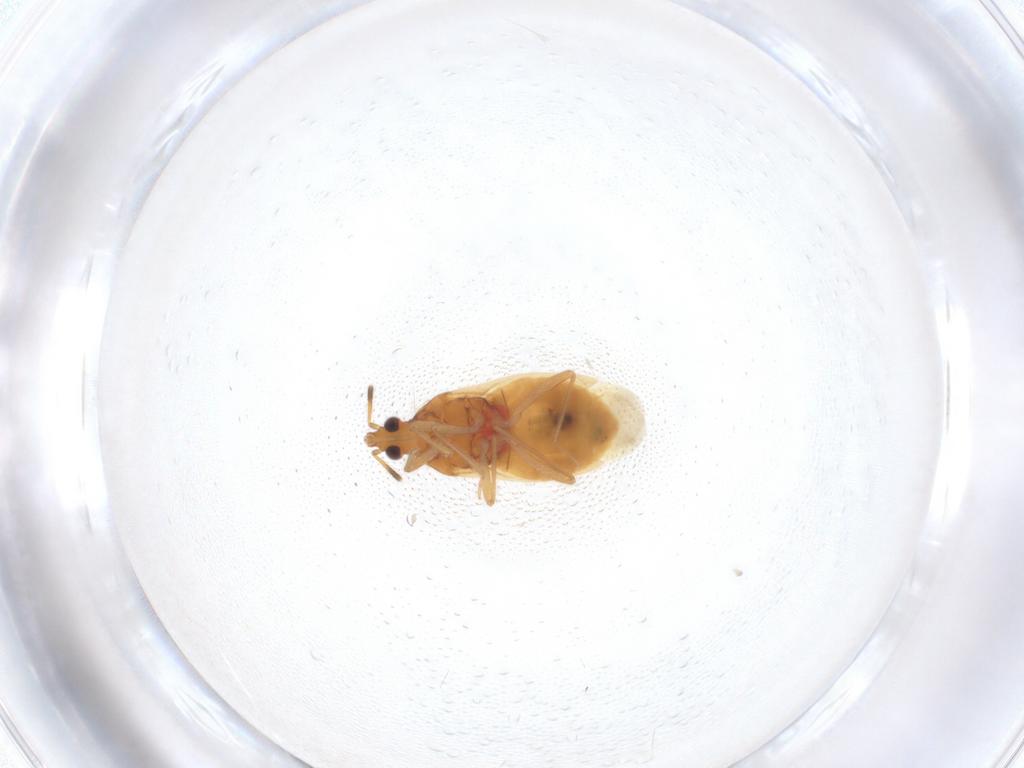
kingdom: Animalia
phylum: Arthropoda
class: Insecta
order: Hemiptera
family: Anthocoridae
